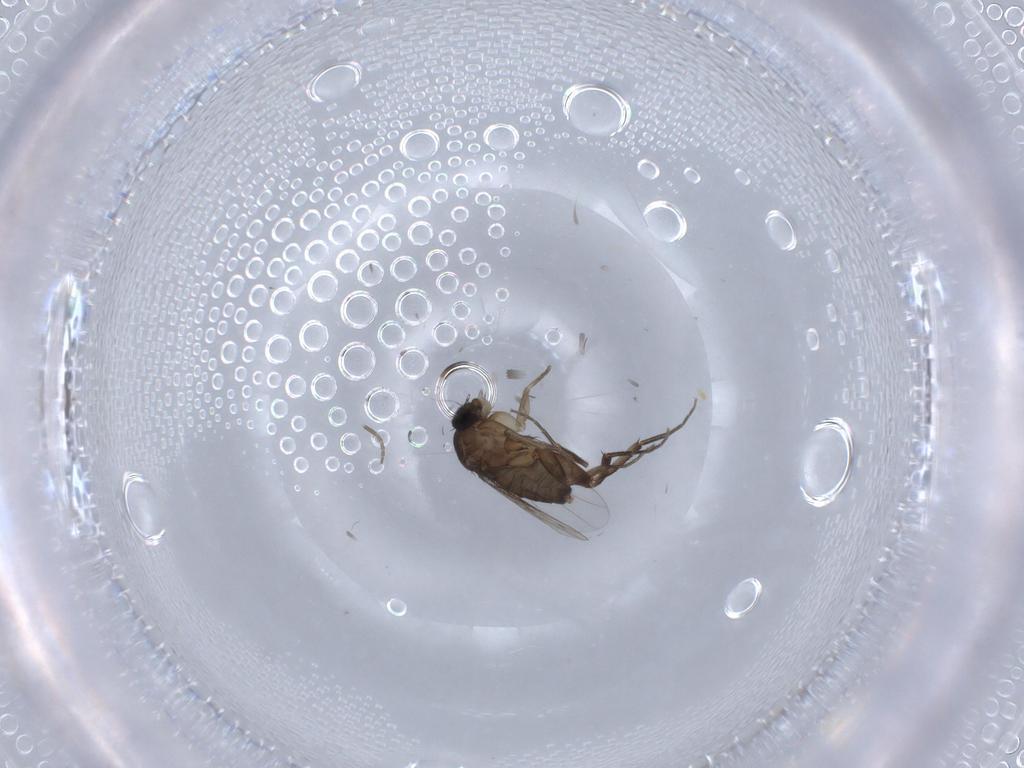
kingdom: Animalia
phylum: Arthropoda
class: Insecta
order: Diptera
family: Phoridae
